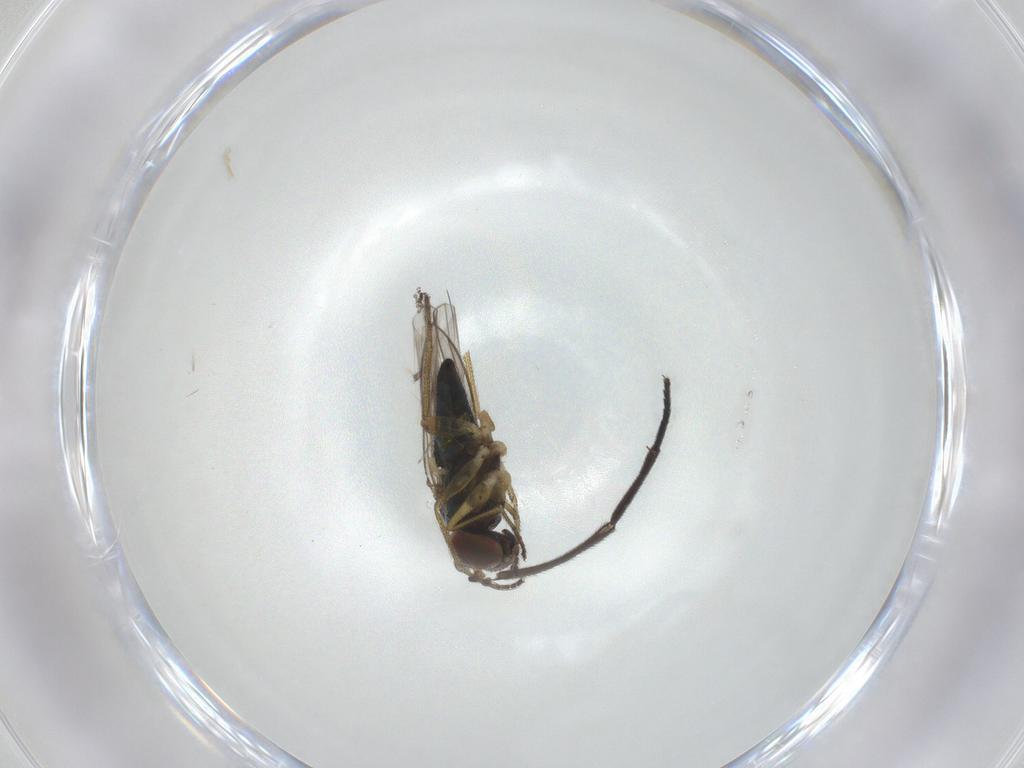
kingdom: Animalia
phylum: Arthropoda
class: Insecta
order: Diptera
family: Sciaridae
